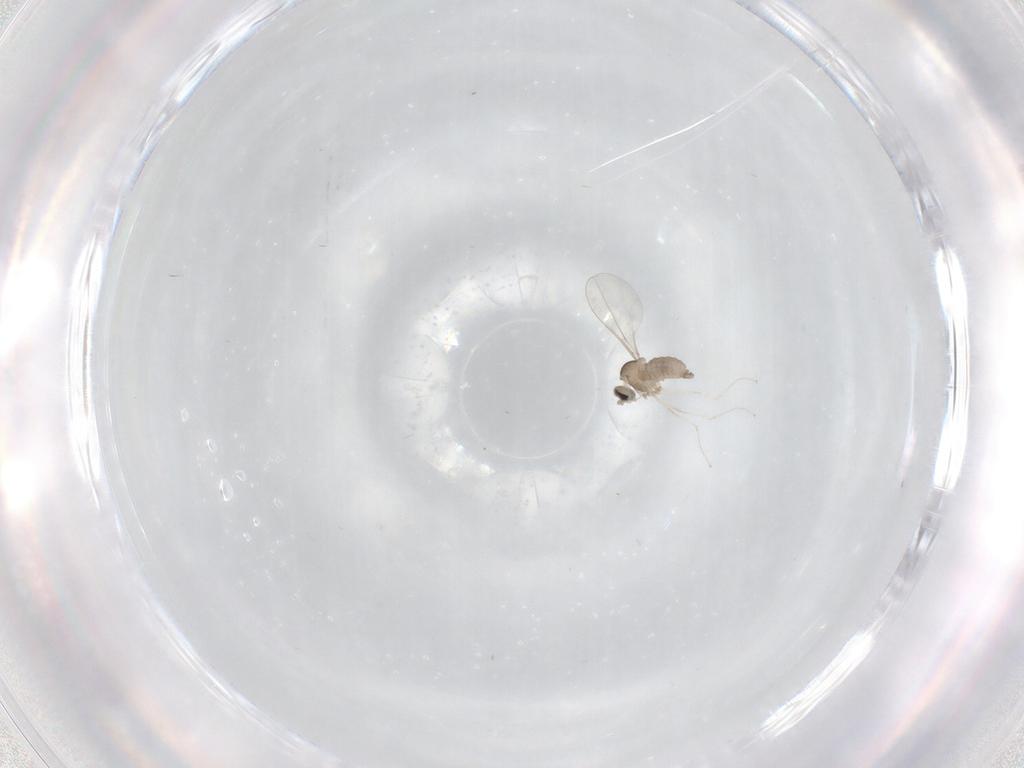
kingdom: Animalia
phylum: Arthropoda
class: Insecta
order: Diptera
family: Cecidomyiidae
